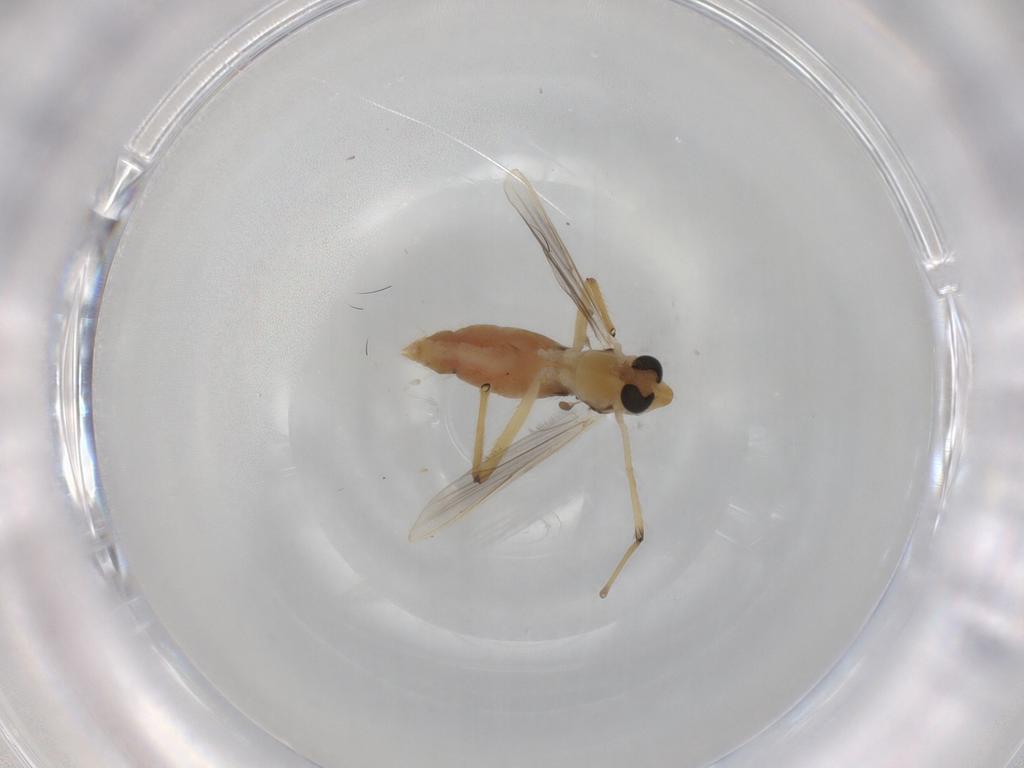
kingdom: Animalia
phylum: Arthropoda
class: Insecta
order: Diptera
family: Chironomidae
